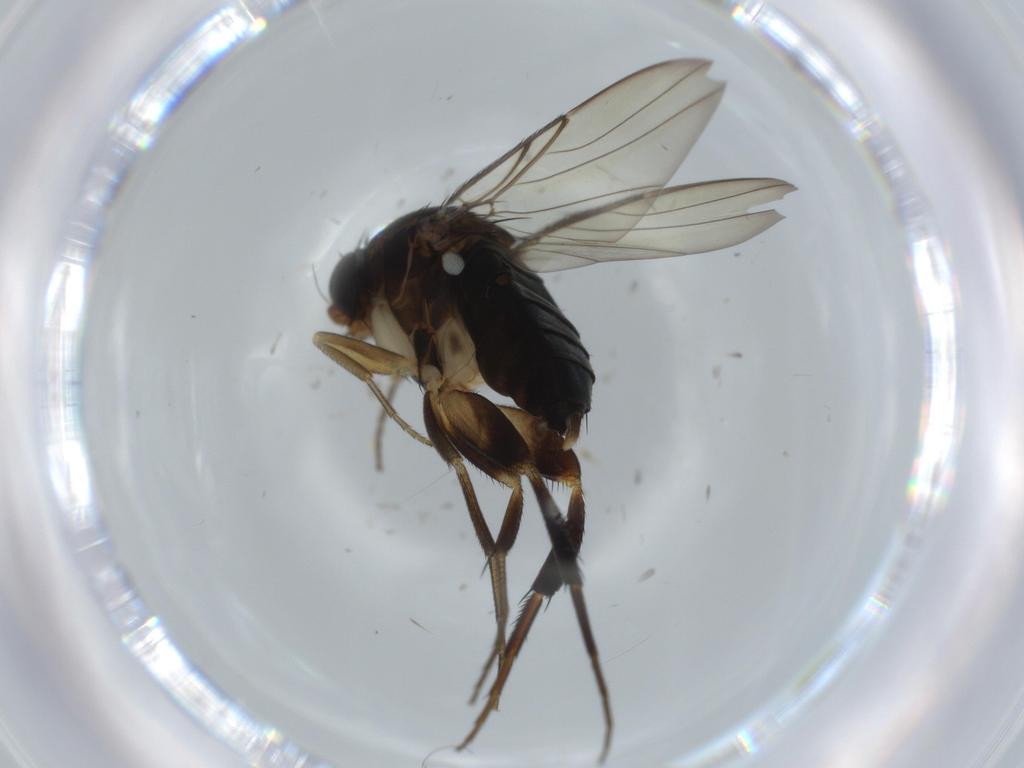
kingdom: Animalia
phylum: Arthropoda
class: Insecta
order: Diptera
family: Phoridae
